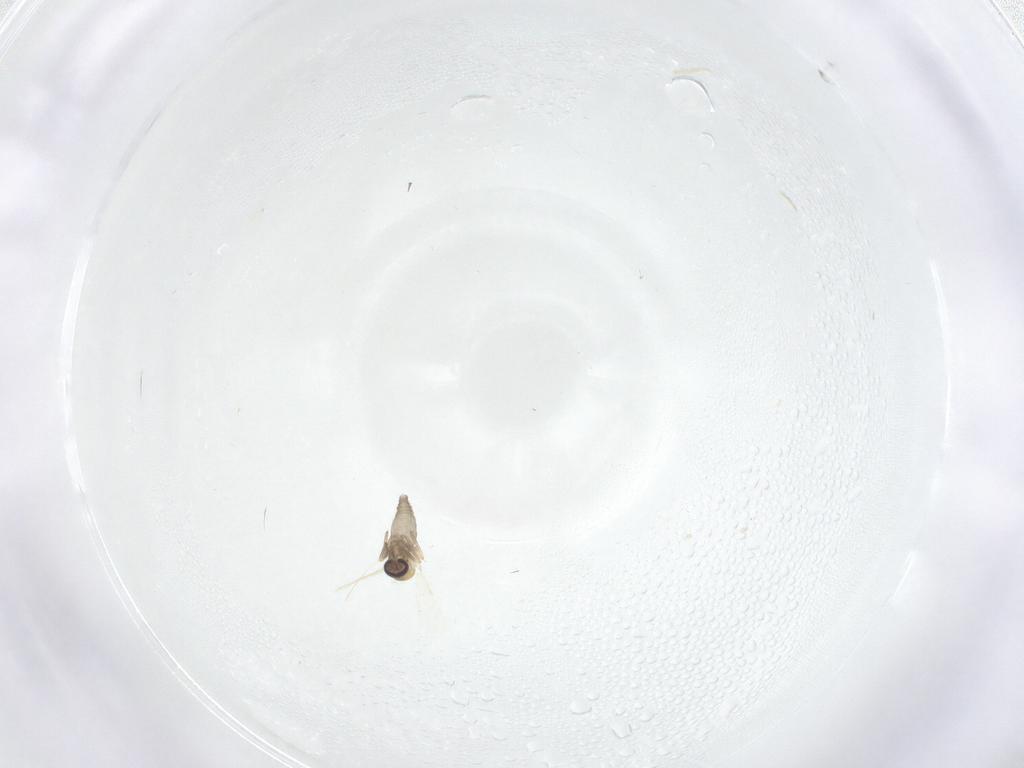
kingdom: Animalia
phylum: Arthropoda
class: Insecta
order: Diptera
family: Ceratopogonidae
